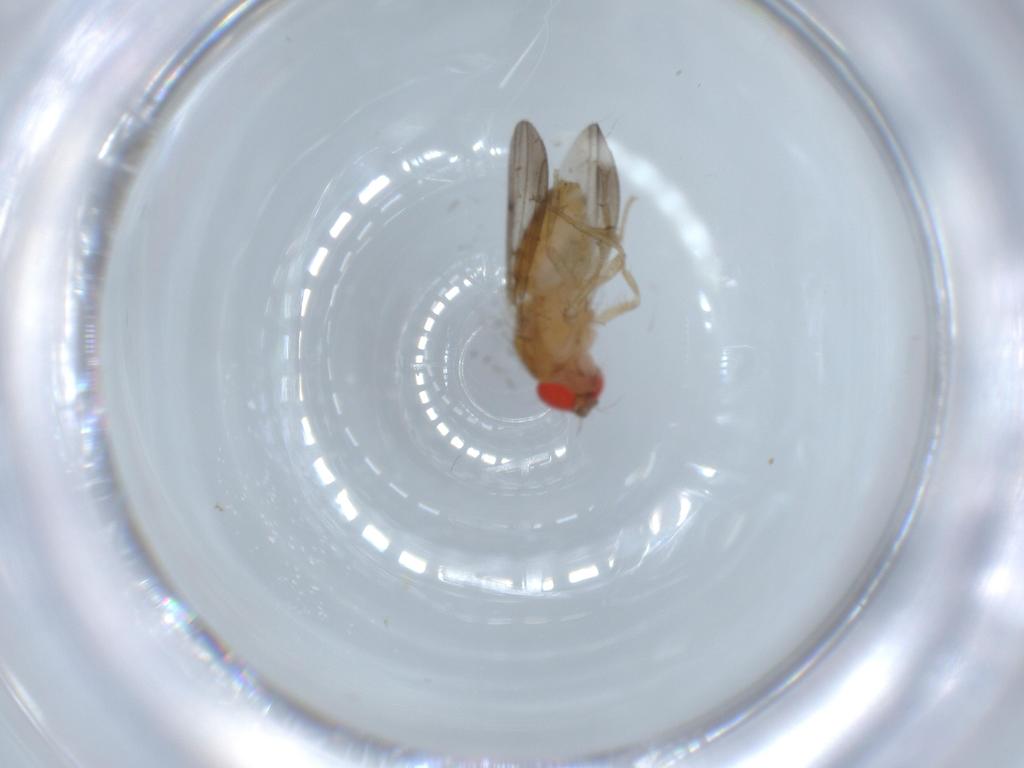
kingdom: Animalia
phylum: Arthropoda
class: Insecta
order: Diptera
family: Drosophilidae
